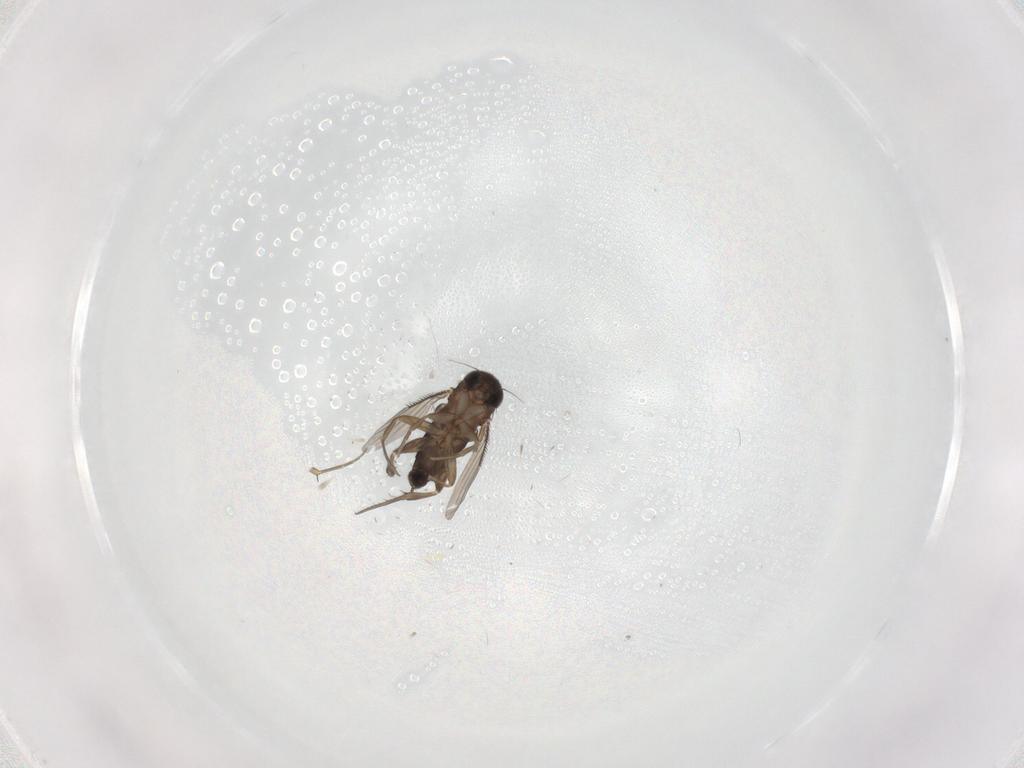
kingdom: Animalia
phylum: Arthropoda
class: Insecta
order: Diptera
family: Phoridae
